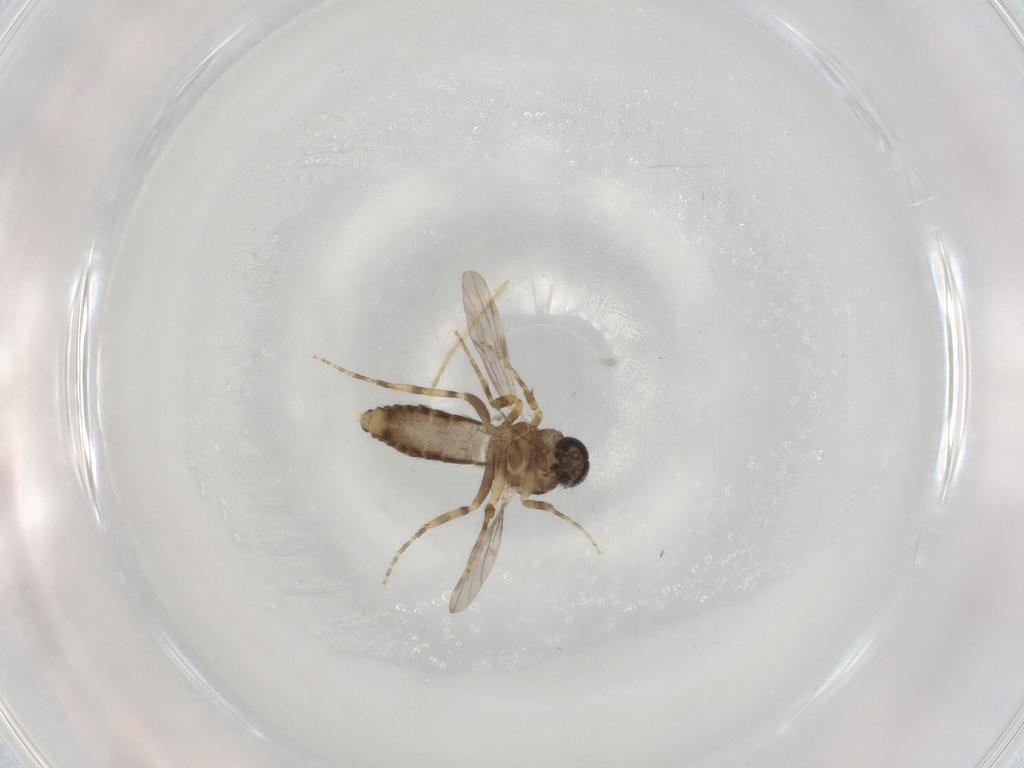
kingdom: Animalia
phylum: Arthropoda
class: Insecta
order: Diptera
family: Ceratopogonidae
